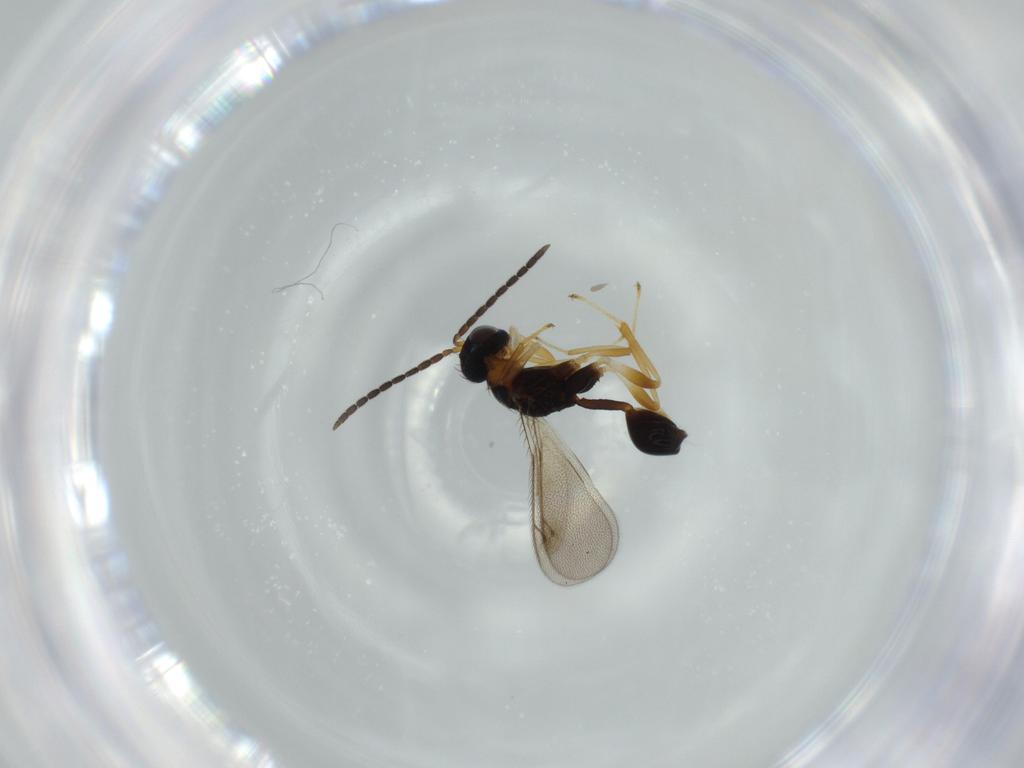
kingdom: Animalia
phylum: Arthropoda
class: Insecta
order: Hymenoptera
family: Diparidae
